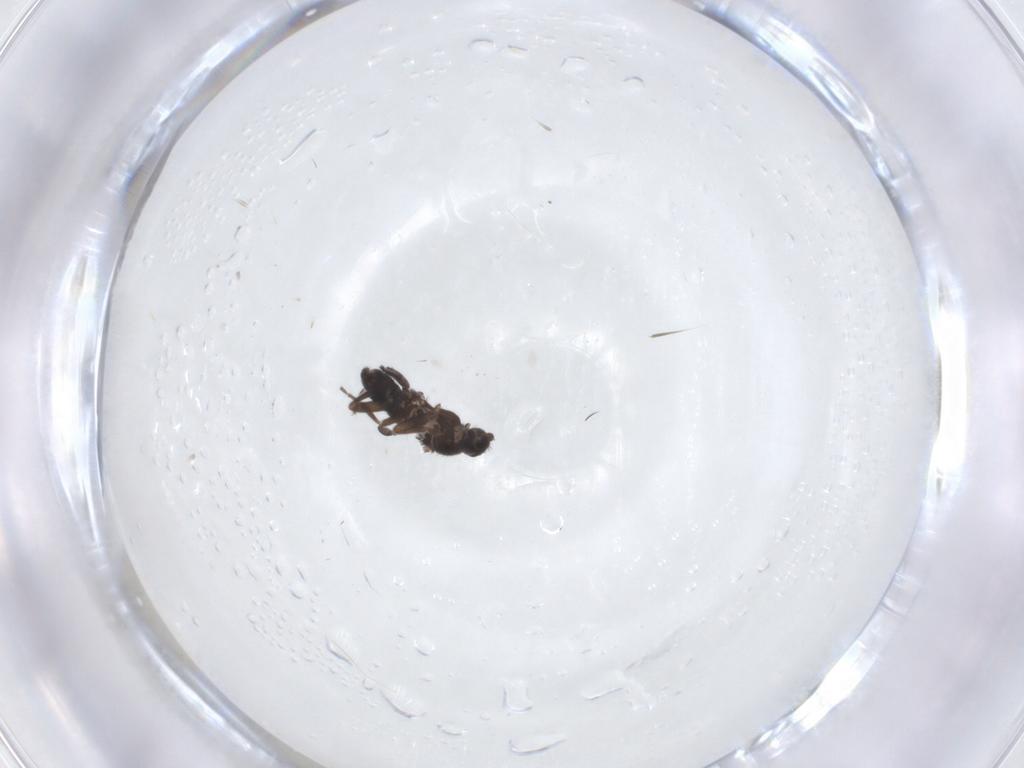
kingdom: Animalia
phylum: Arthropoda
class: Insecta
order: Diptera
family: Phoridae
